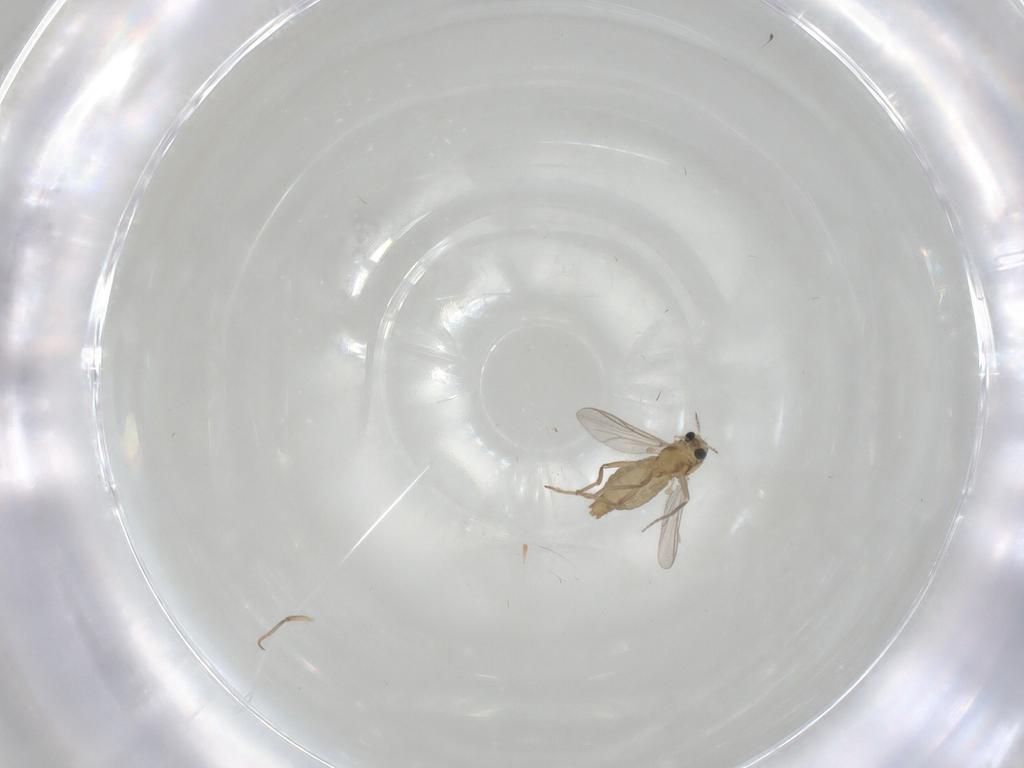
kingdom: Animalia
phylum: Arthropoda
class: Insecta
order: Diptera
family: Chironomidae
